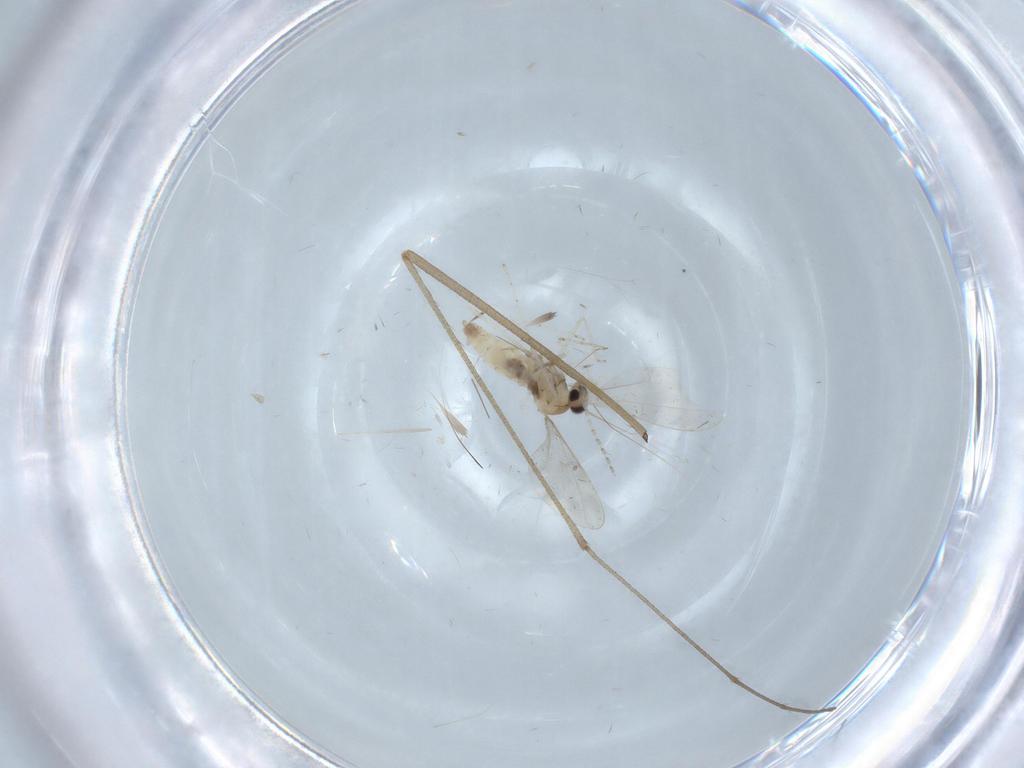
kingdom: Animalia
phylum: Arthropoda
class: Insecta
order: Diptera
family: Limoniidae
